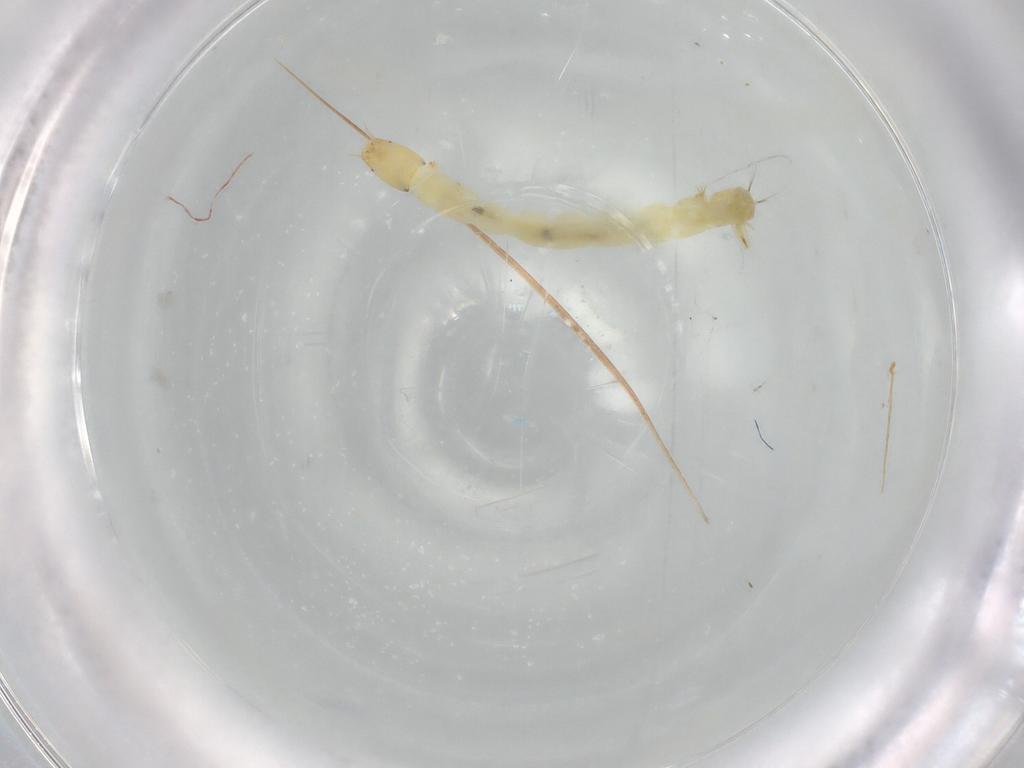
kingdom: Animalia
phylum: Arthropoda
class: Insecta
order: Diptera
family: Chironomidae
